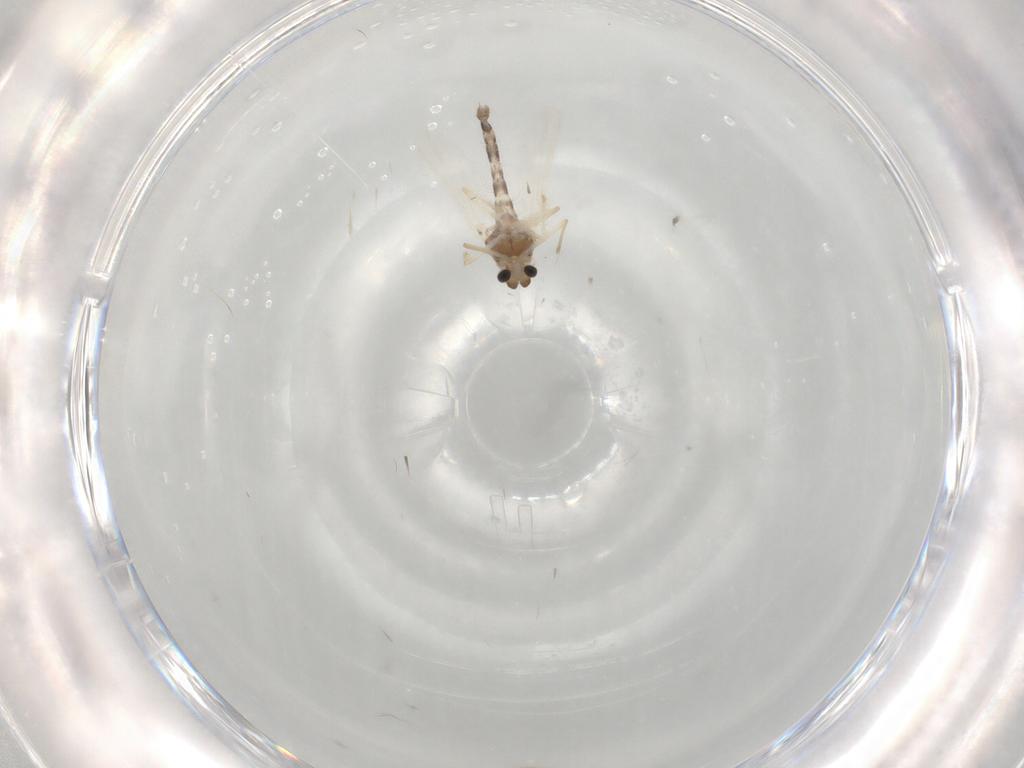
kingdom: Animalia
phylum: Arthropoda
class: Insecta
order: Diptera
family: Chironomidae
